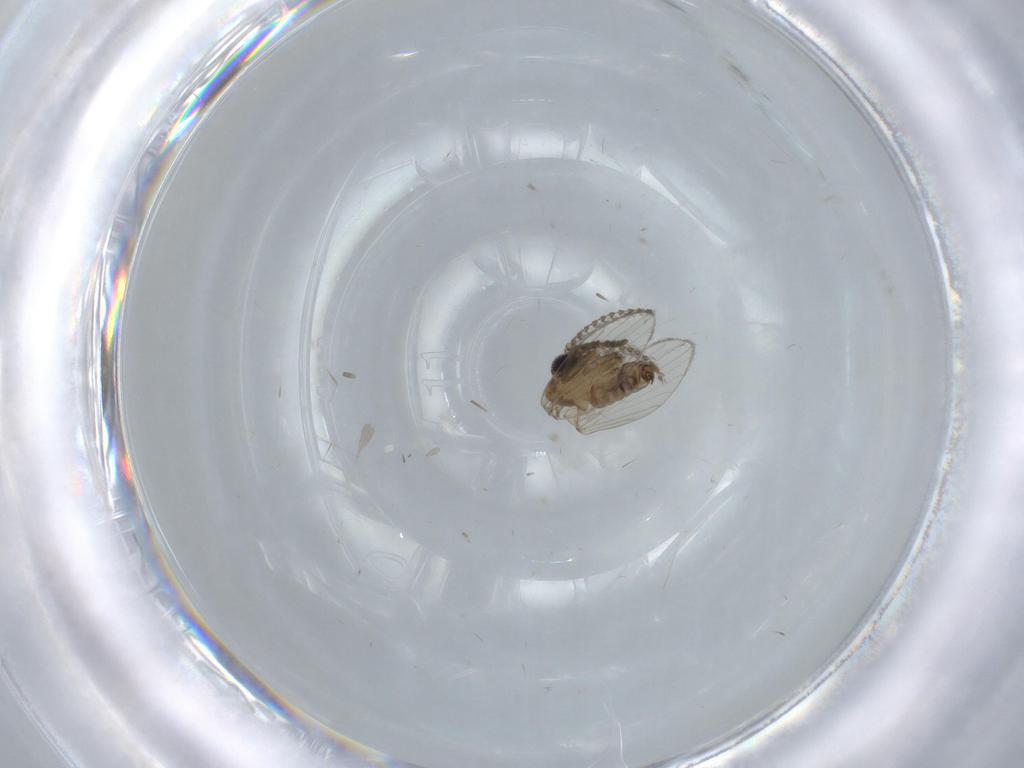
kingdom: Animalia
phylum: Arthropoda
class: Insecta
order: Diptera
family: Psychodidae
